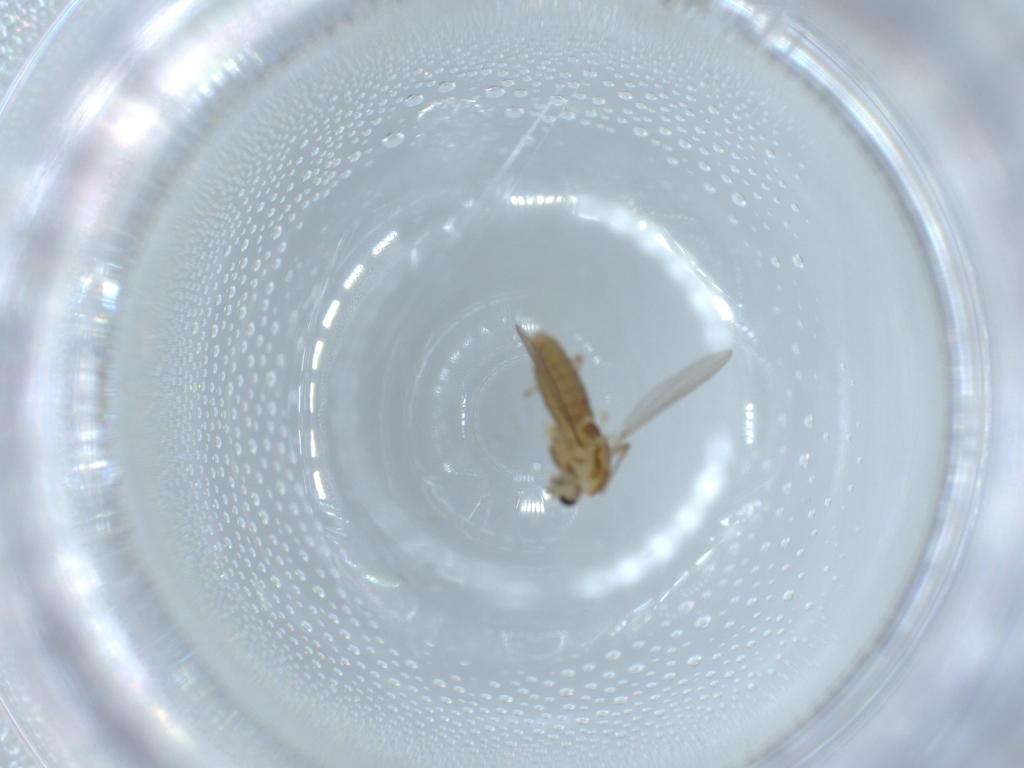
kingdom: Animalia
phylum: Arthropoda
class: Insecta
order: Diptera
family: Chironomidae
